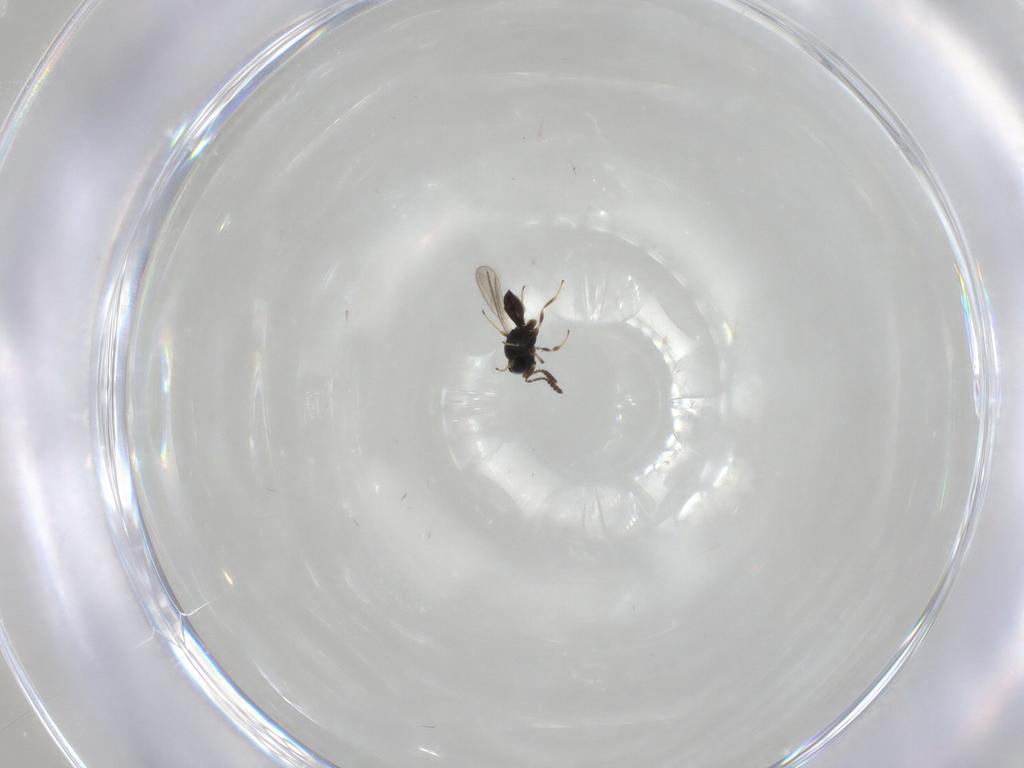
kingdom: Animalia
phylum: Arthropoda
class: Insecta
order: Hymenoptera
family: Scelionidae
